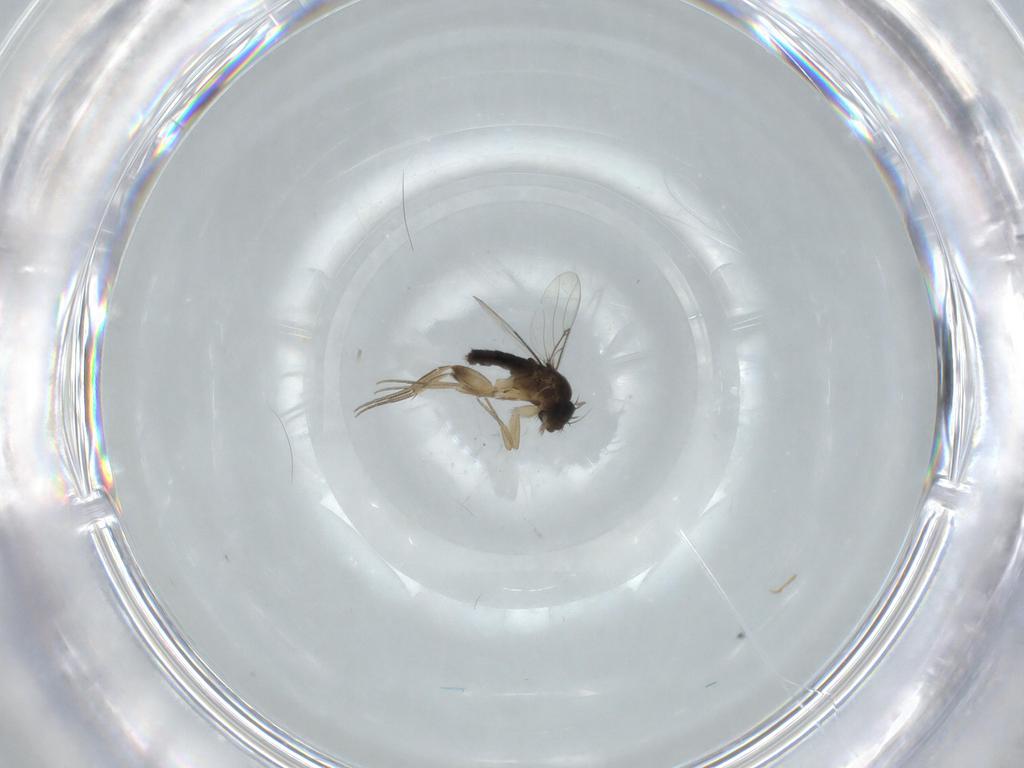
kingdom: Animalia
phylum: Arthropoda
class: Insecta
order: Diptera
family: Phoridae
